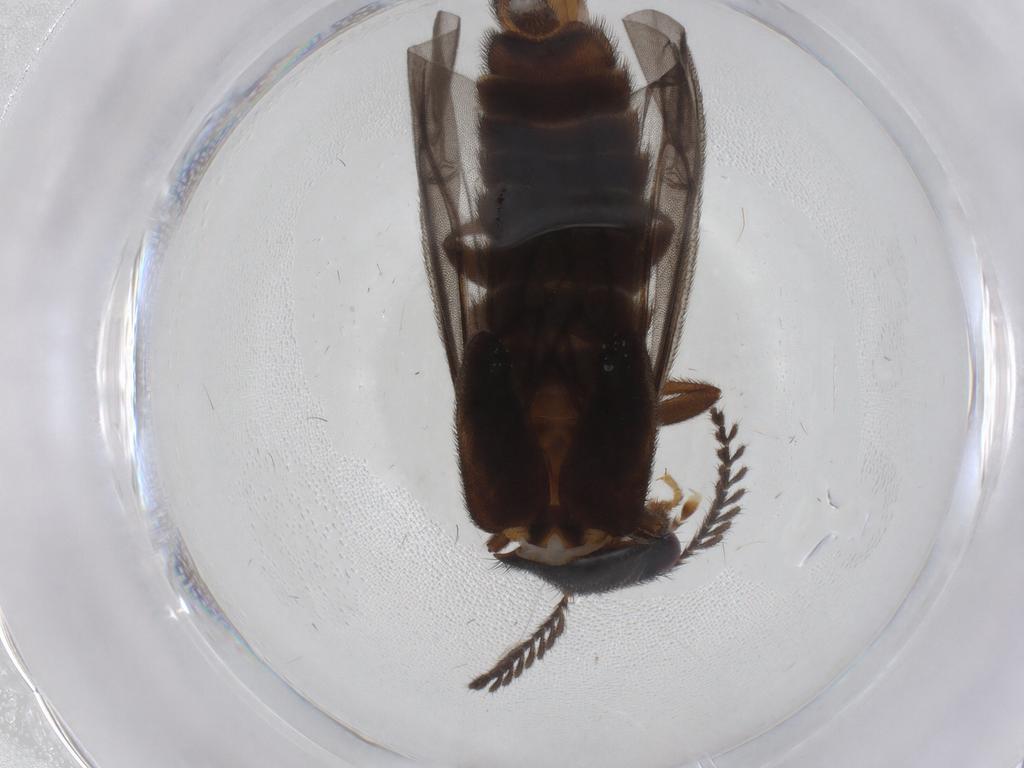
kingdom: Animalia
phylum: Arthropoda
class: Insecta
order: Coleoptera
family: Phengodidae
